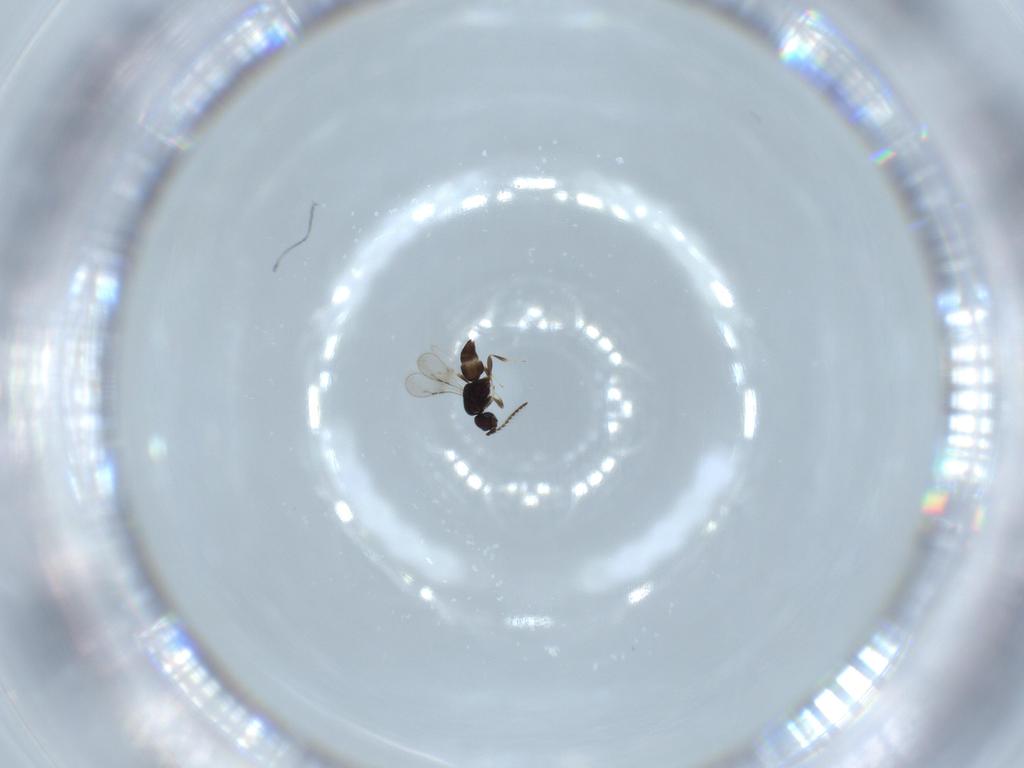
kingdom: Animalia
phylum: Arthropoda
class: Insecta
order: Hymenoptera
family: Ceraphronidae
